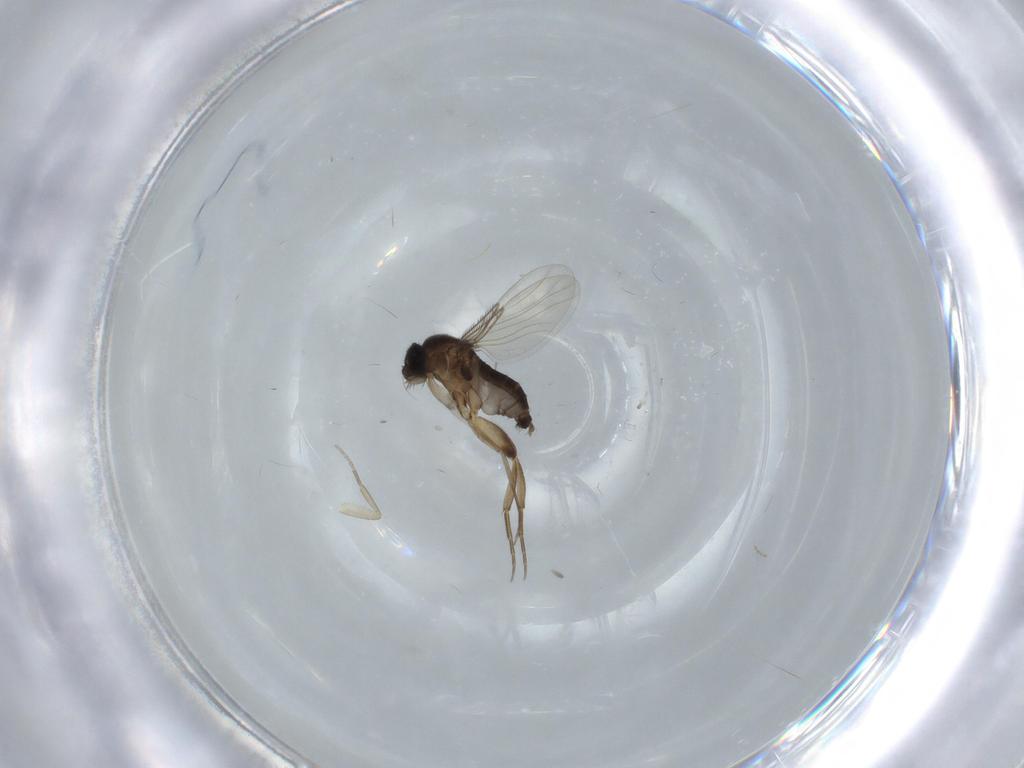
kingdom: Animalia
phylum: Arthropoda
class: Insecta
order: Diptera
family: Phoridae
